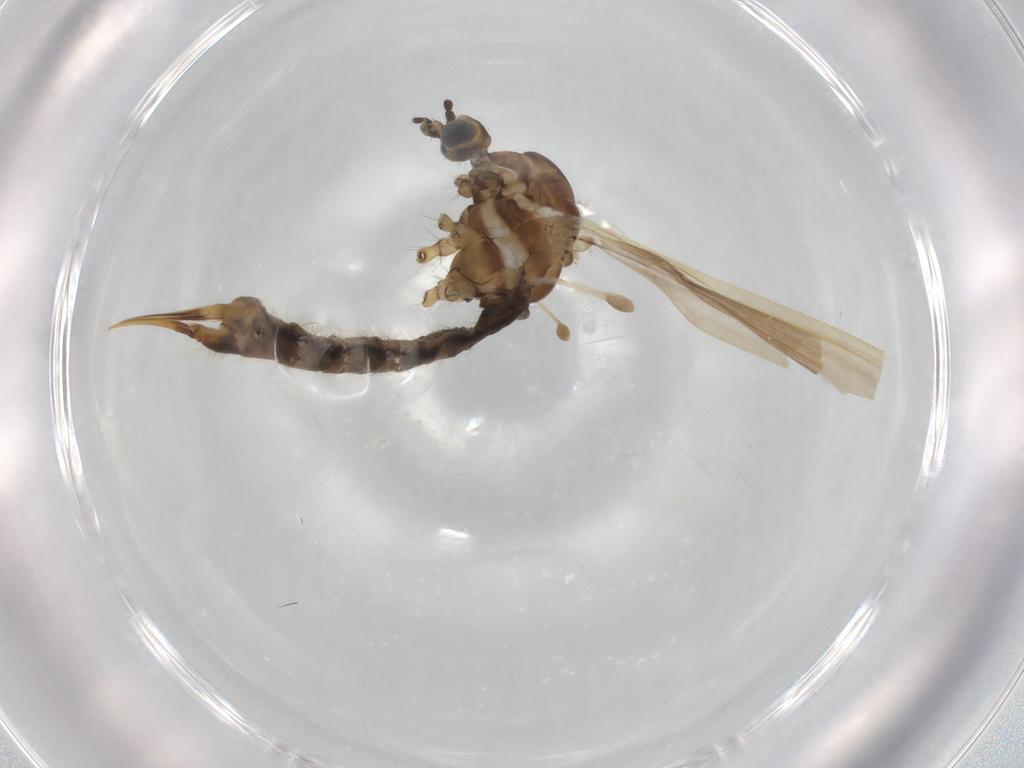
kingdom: Animalia
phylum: Arthropoda
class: Insecta
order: Diptera
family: Limoniidae
